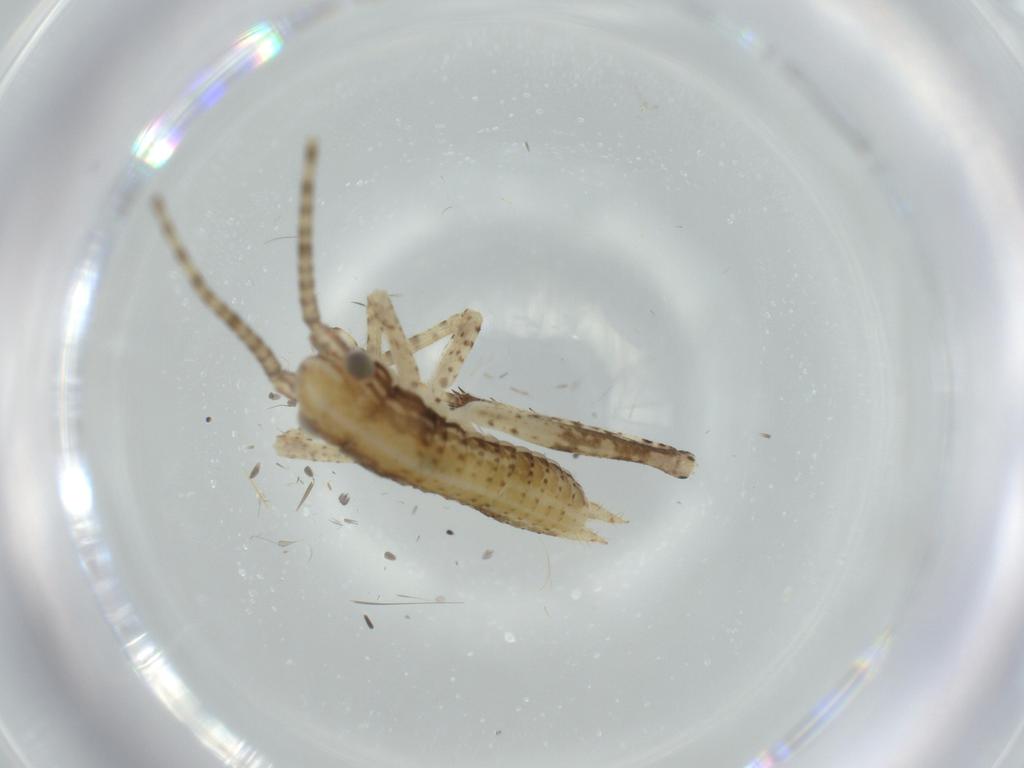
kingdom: Animalia
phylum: Arthropoda
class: Insecta
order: Orthoptera
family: Gryllidae
